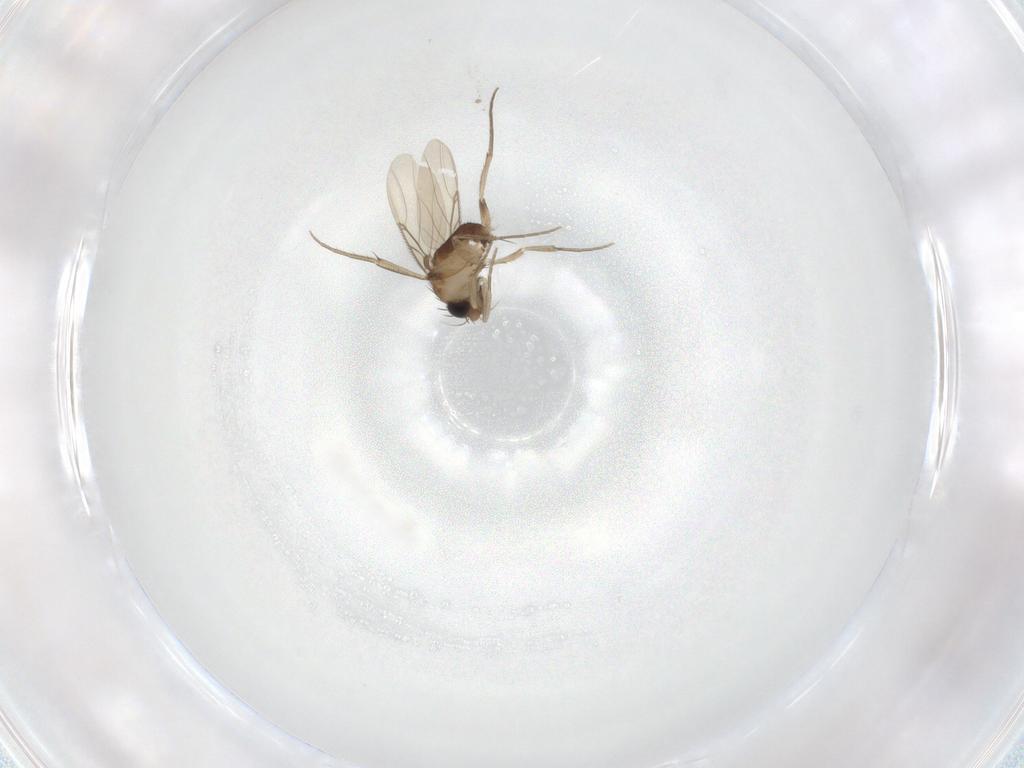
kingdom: Animalia
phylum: Arthropoda
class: Insecta
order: Diptera
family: Phoridae
